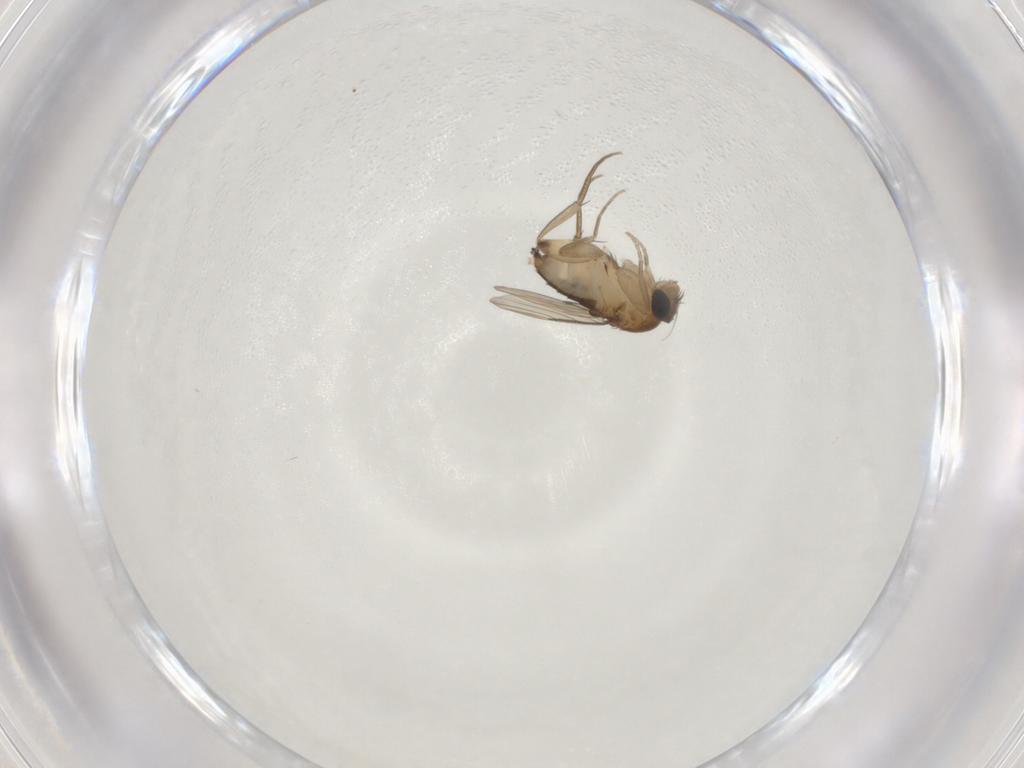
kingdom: Animalia
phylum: Arthropoda
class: Insecta
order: Diptera
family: Phoridae
